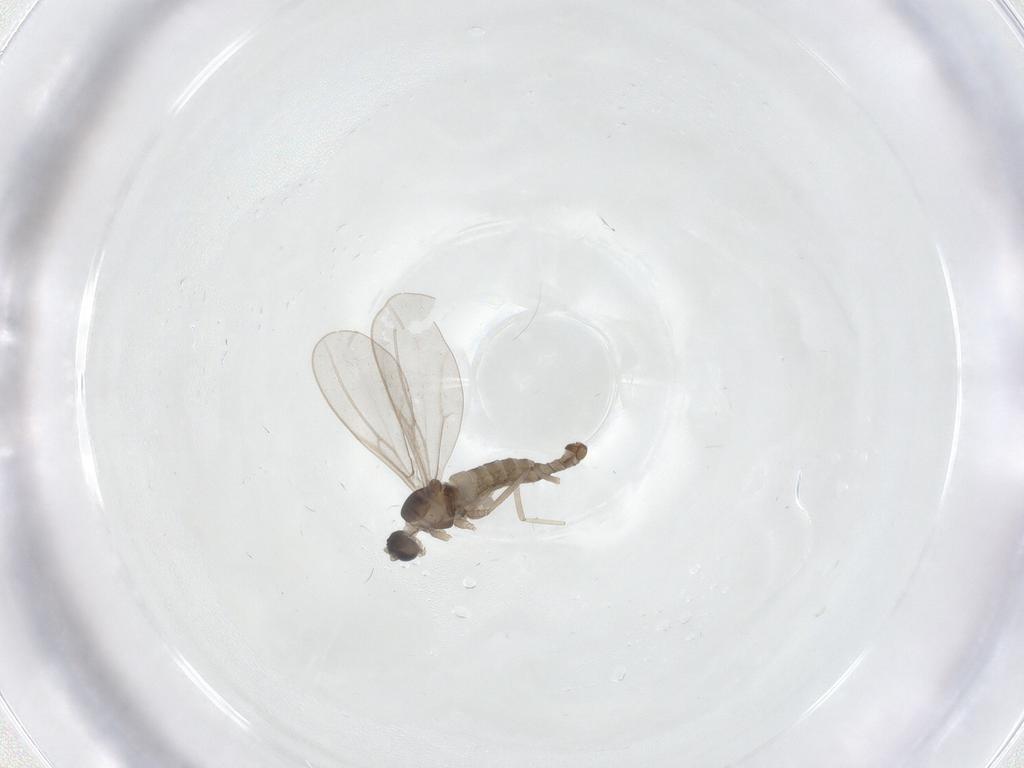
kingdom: Animalia
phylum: Arthropoda
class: Insecta
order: Diptera
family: Cecidomyiidae
